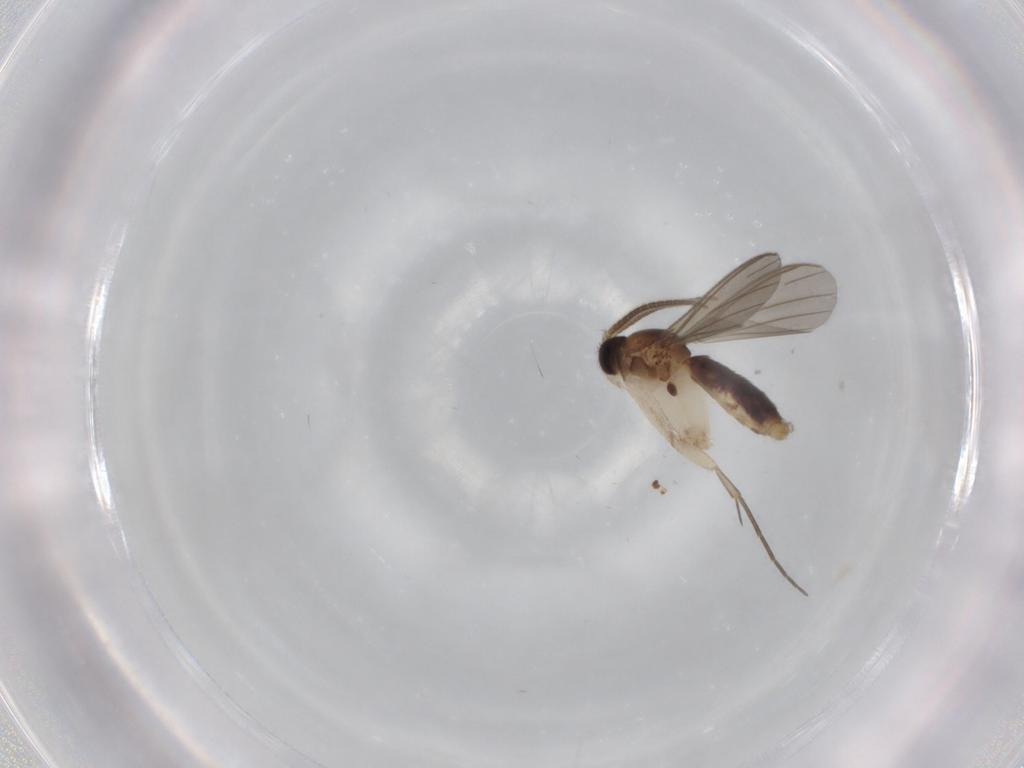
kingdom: Animalia
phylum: Arthropoda
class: Insecta
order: Diptera
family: Mycetophilidae
